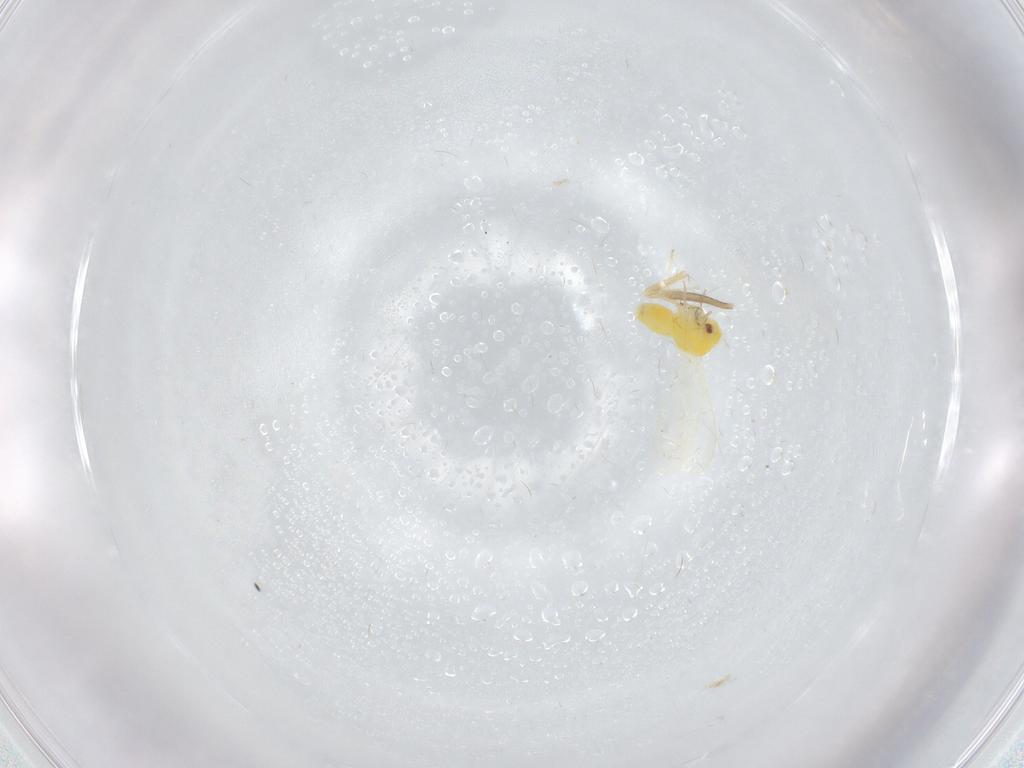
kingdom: Animalia
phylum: Arthropoda
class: Insecta
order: Hemiptera
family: Aleyrodidae
